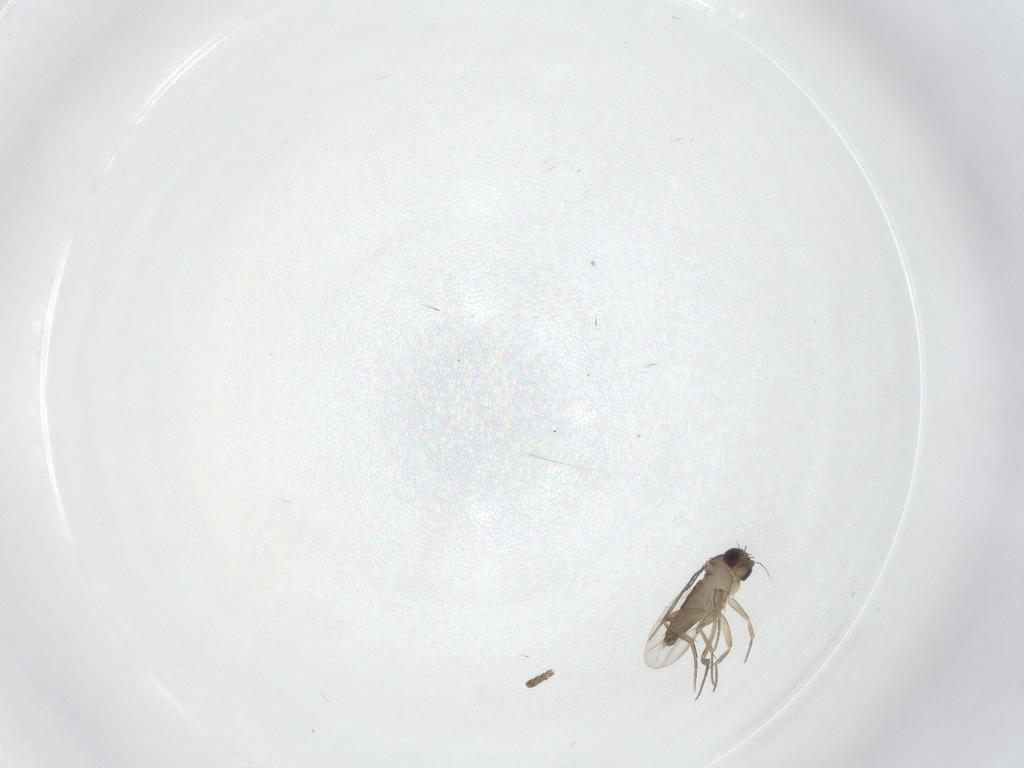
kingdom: Animalia
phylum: Arthropoda
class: Insecta
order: Diptera
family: Psychodidae
